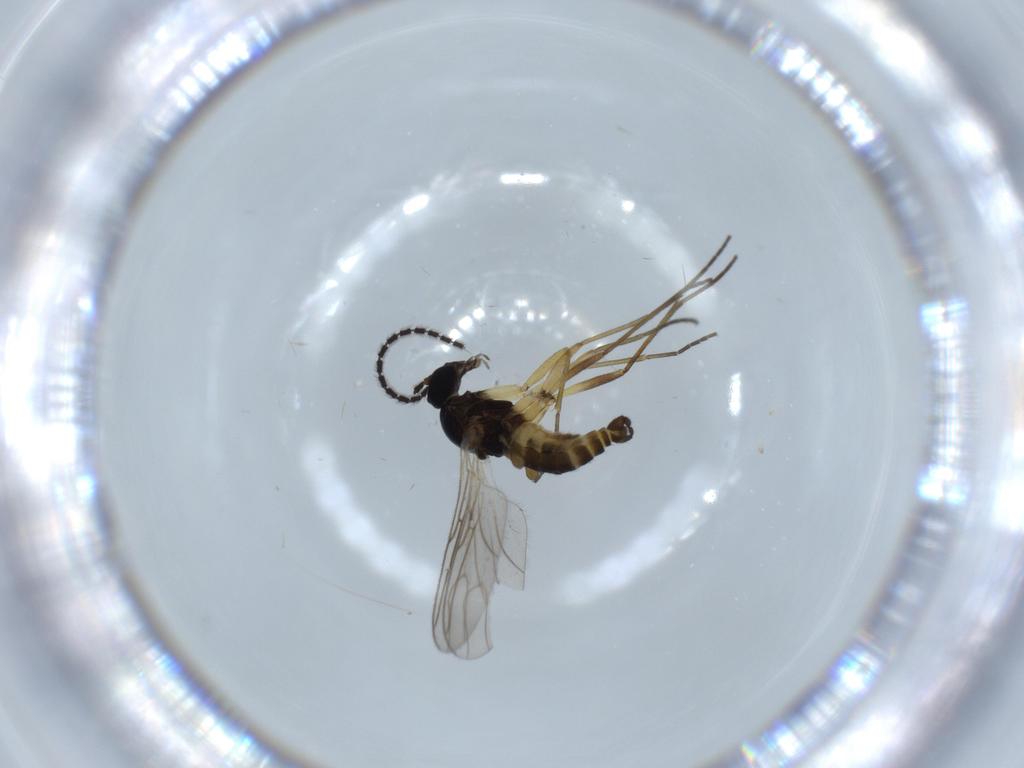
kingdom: Animalia
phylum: Arthropoda
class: Insecta
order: Diptera
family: Sciaridae
